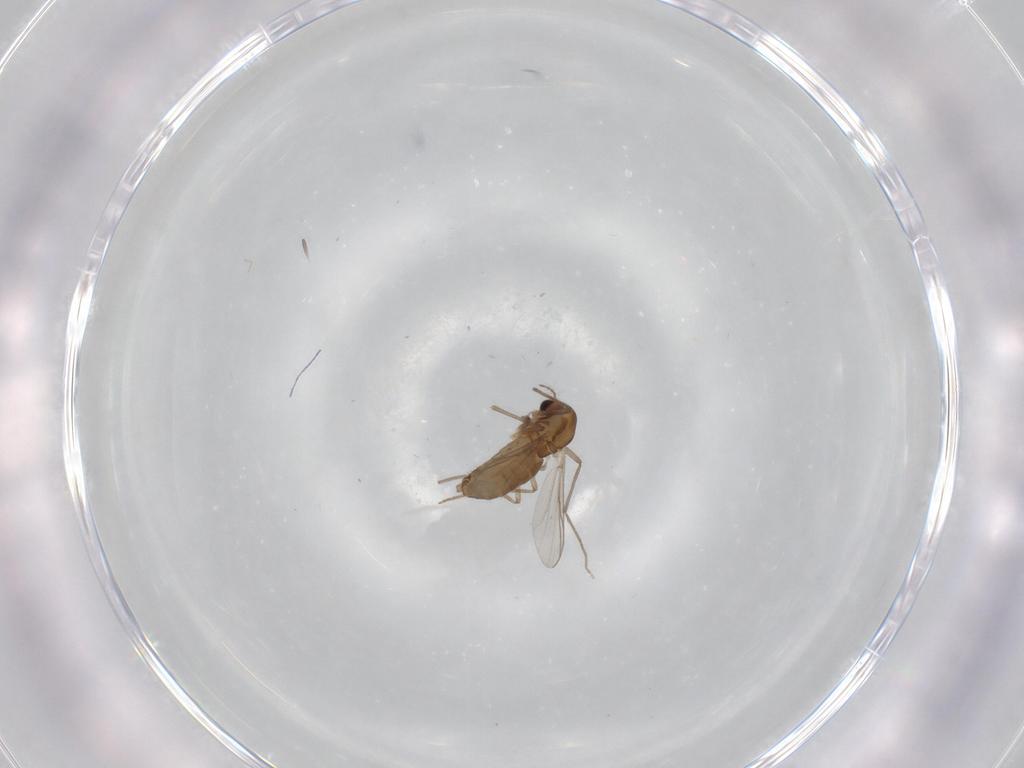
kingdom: Animalia
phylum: Arthropoda
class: Insecta
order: Diptera
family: Chironomidae
